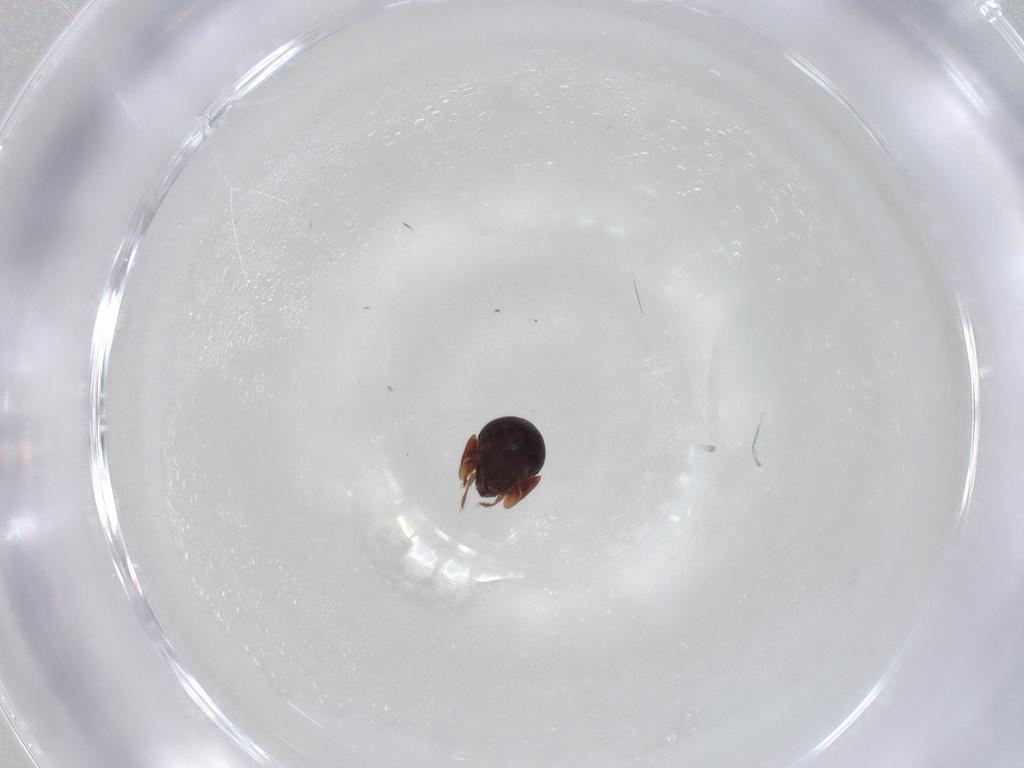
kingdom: Animalia
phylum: Arthropoda
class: Arachnida
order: Sarcoptiformes
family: Galumnidae
